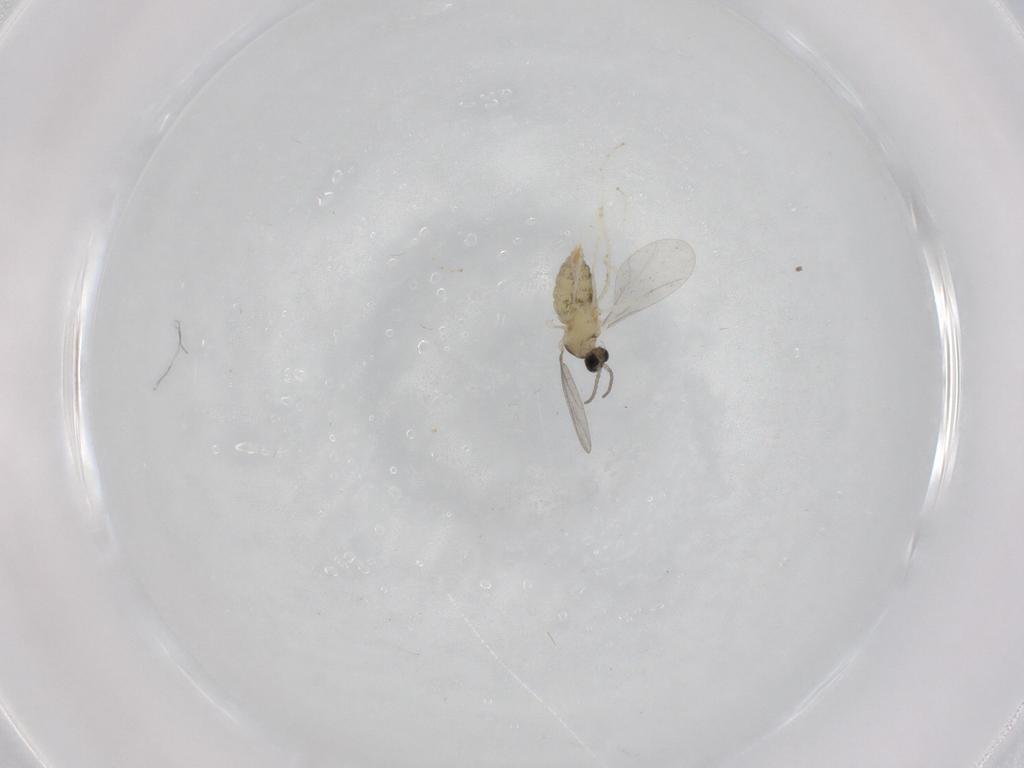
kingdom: Animalia
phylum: Arthropoda
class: Insecta
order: Diptera
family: Cecidomyiidae
